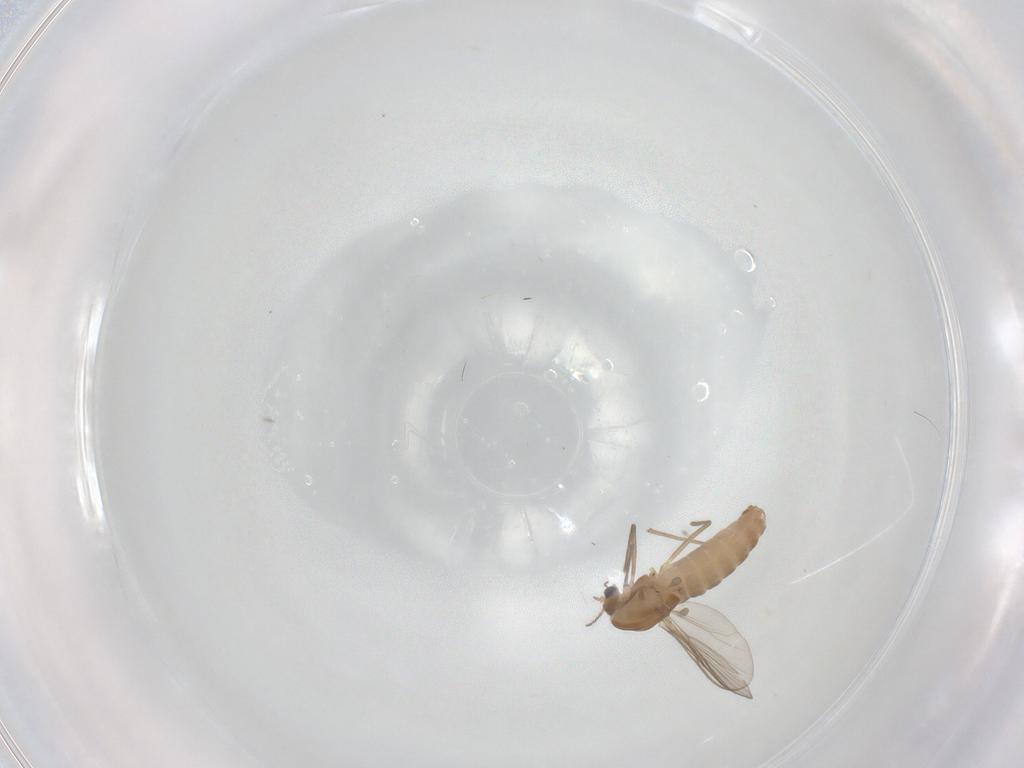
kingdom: Animalia
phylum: Arthropoda
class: Insecta
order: Diptera
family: Chironomidae
